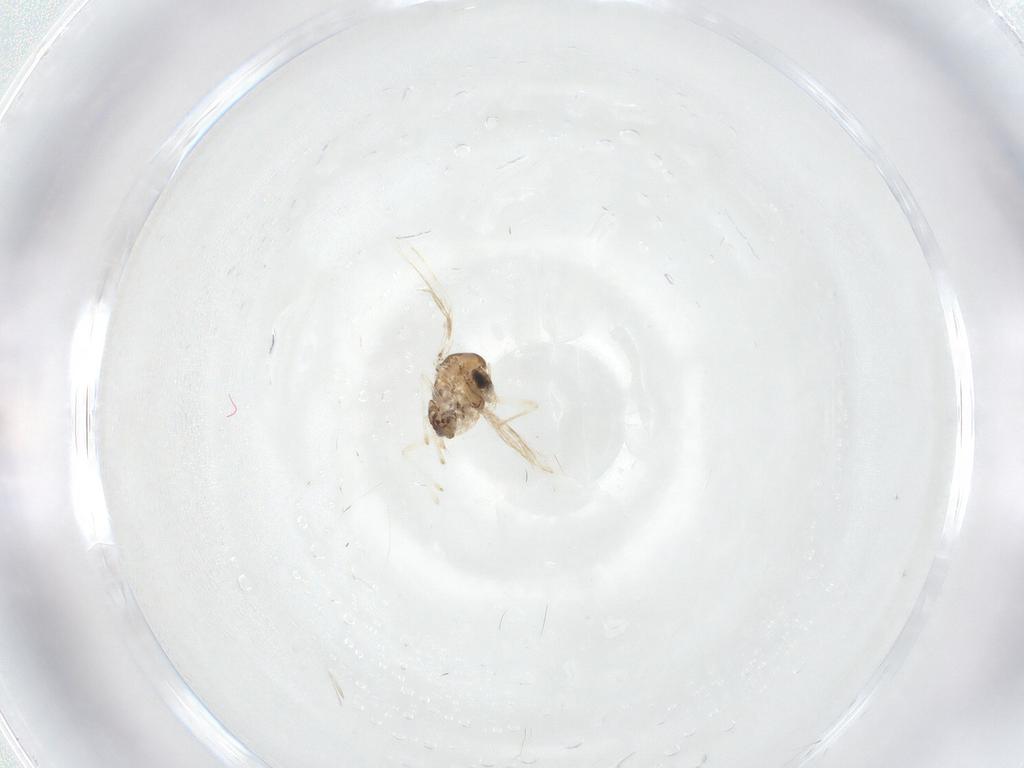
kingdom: Animalia
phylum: Arthropoda
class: Insecta
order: Diptera
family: Chironomidae
